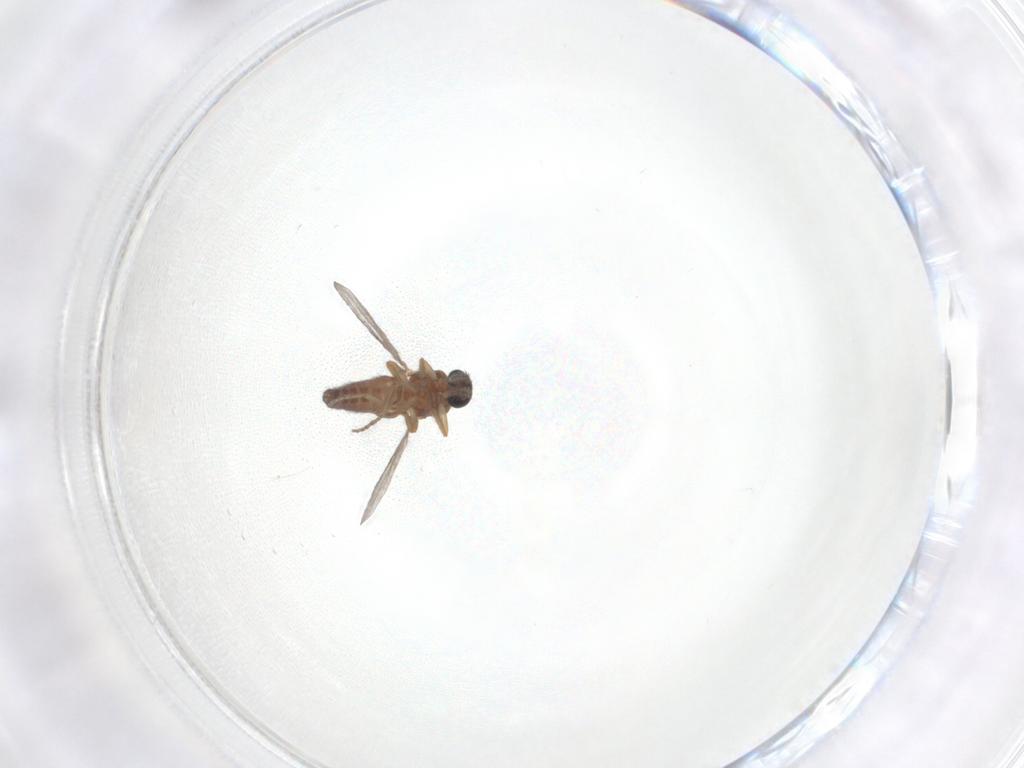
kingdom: Animalia
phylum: Arthropoda
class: Insecta
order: Diptera
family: Ceratopogonidae
